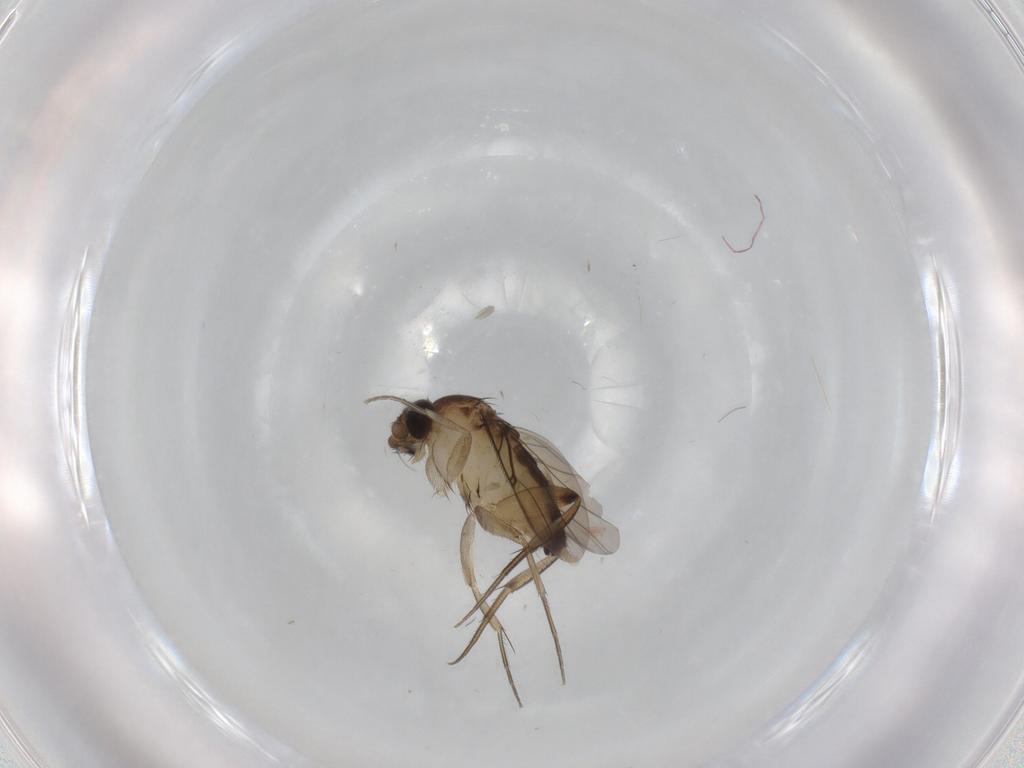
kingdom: Animalia
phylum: Arthropoda
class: Insecta
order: Diptera
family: Phoridae
